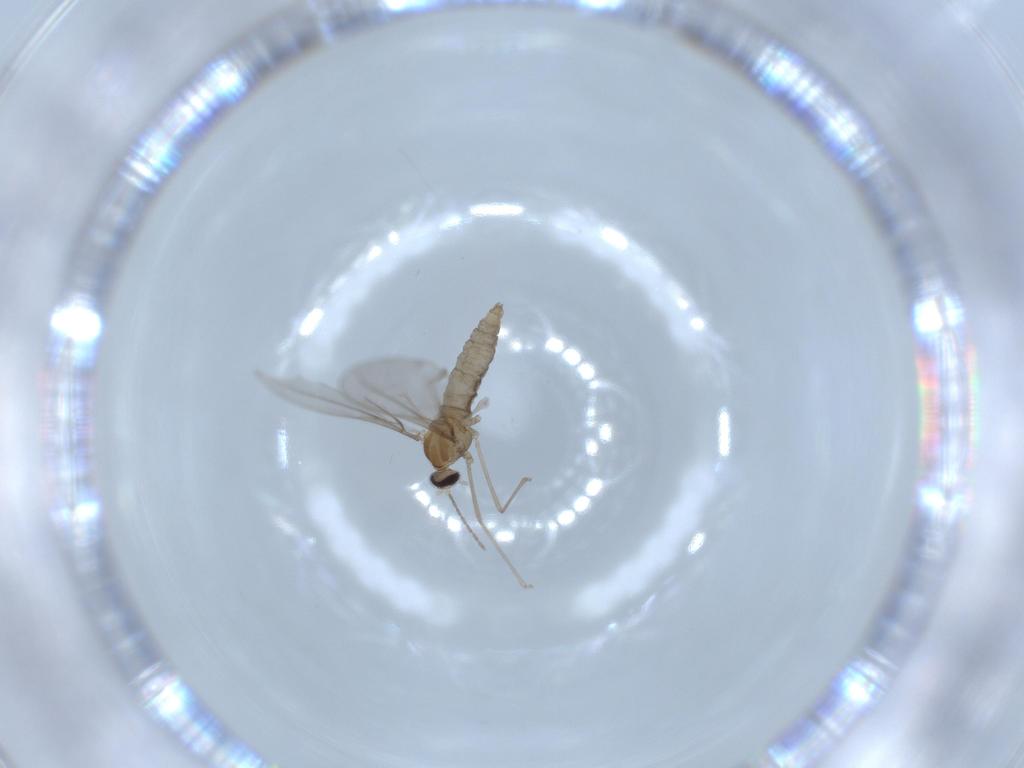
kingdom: Animalia
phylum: Arthropoda
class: Insecta
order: Diptera
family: Cecidomyiidae
